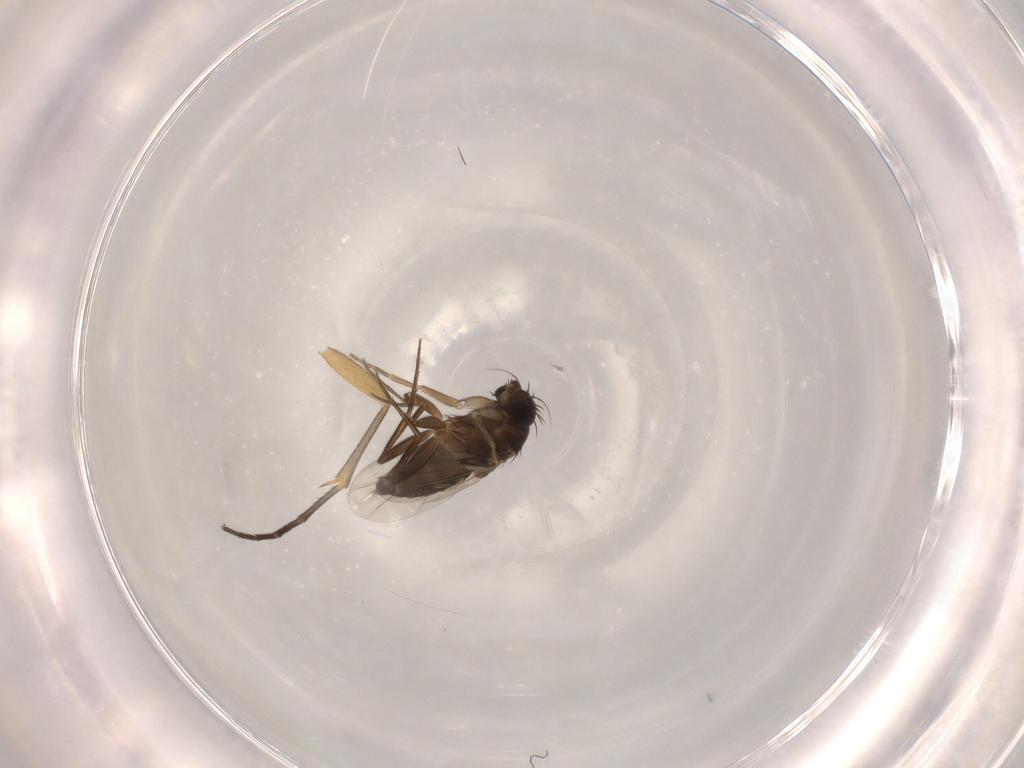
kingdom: Animalia
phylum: Arthropoda
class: Insecta
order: Diptera
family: Phoridae
